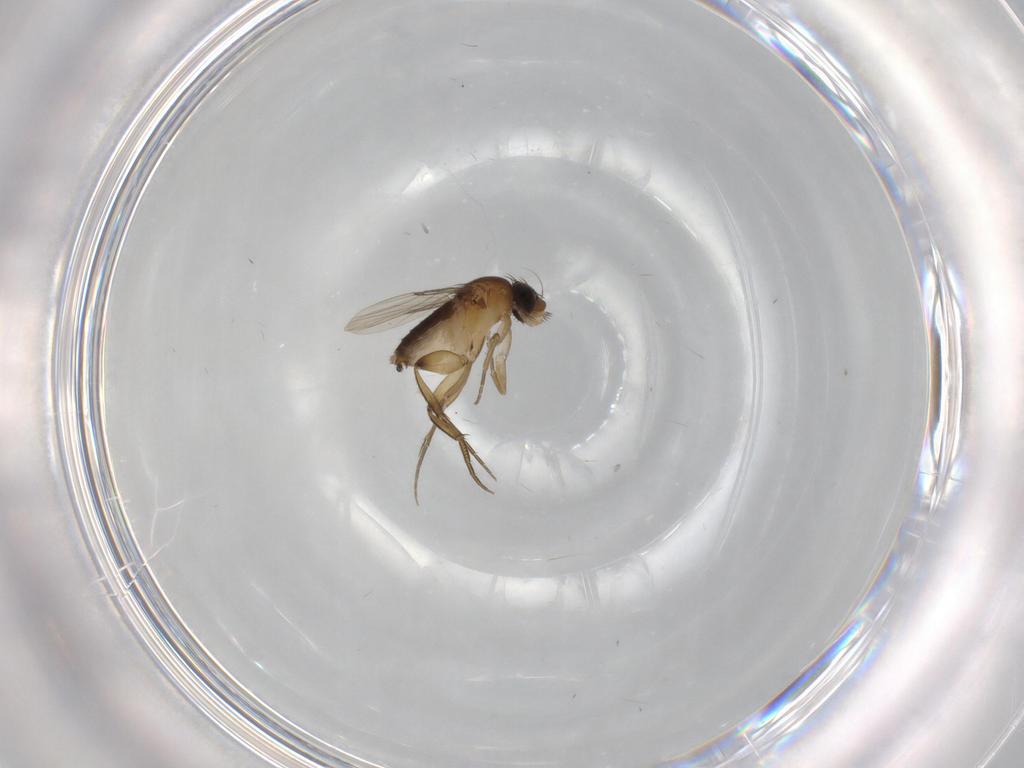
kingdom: Animalia
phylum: Arthropoda
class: Insecta
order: Diptera
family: Phoridae
